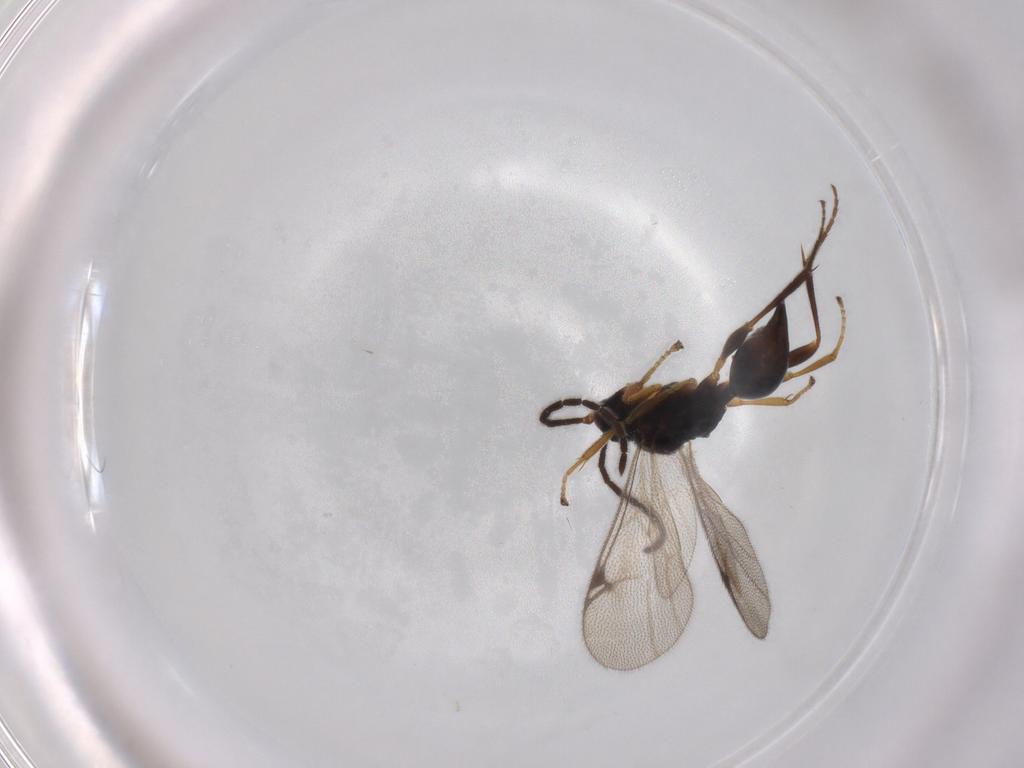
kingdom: Animalia
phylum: Arthropoda
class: Insecta
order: Hymenoptera
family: Proctotrupidae
